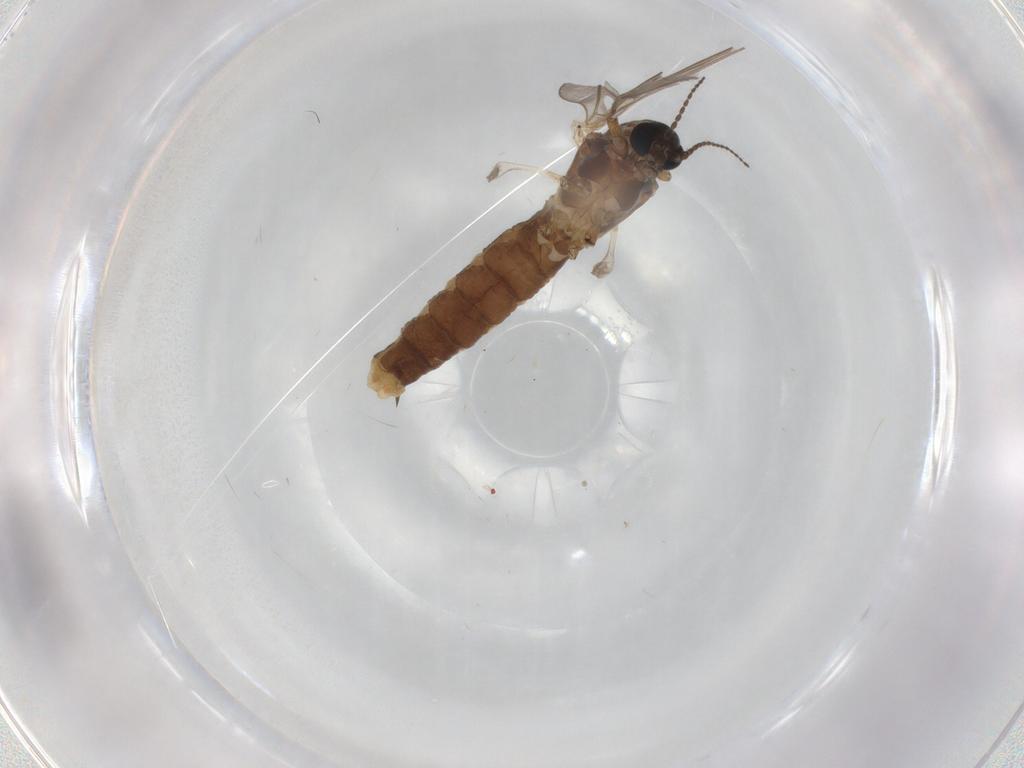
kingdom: Animalia
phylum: Arthropoda
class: Insecta
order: Diptera
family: Limoniidae
